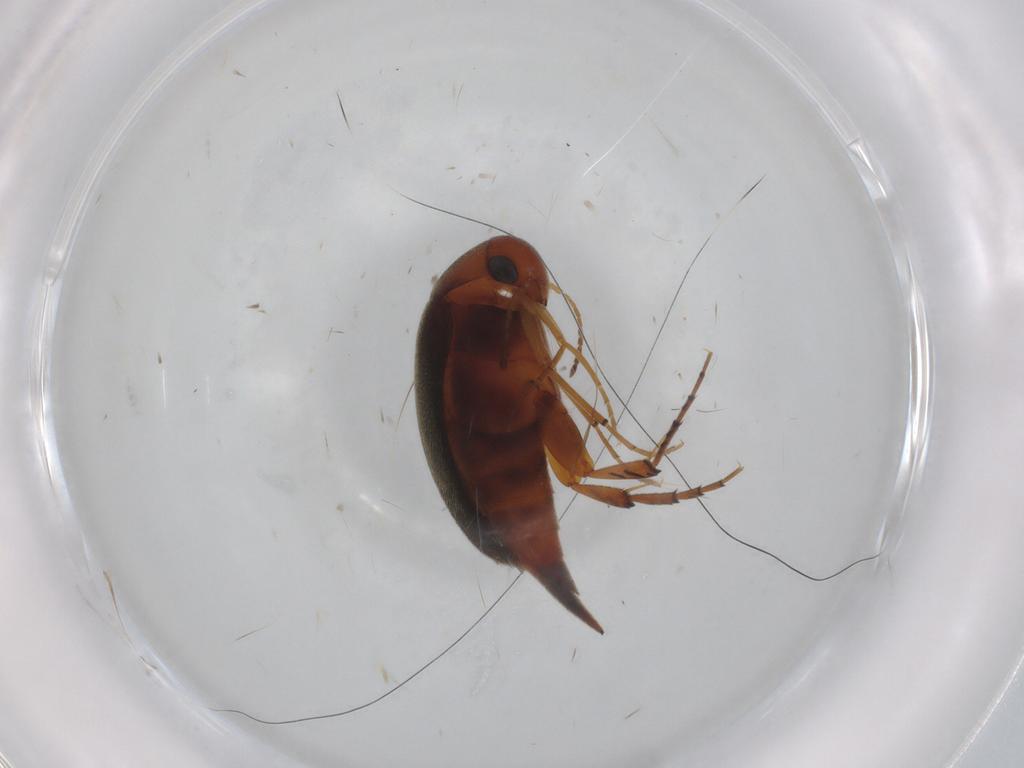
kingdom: Animalia
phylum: Arthropoda
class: Insecta
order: Coleoptera
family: Mordellidae
